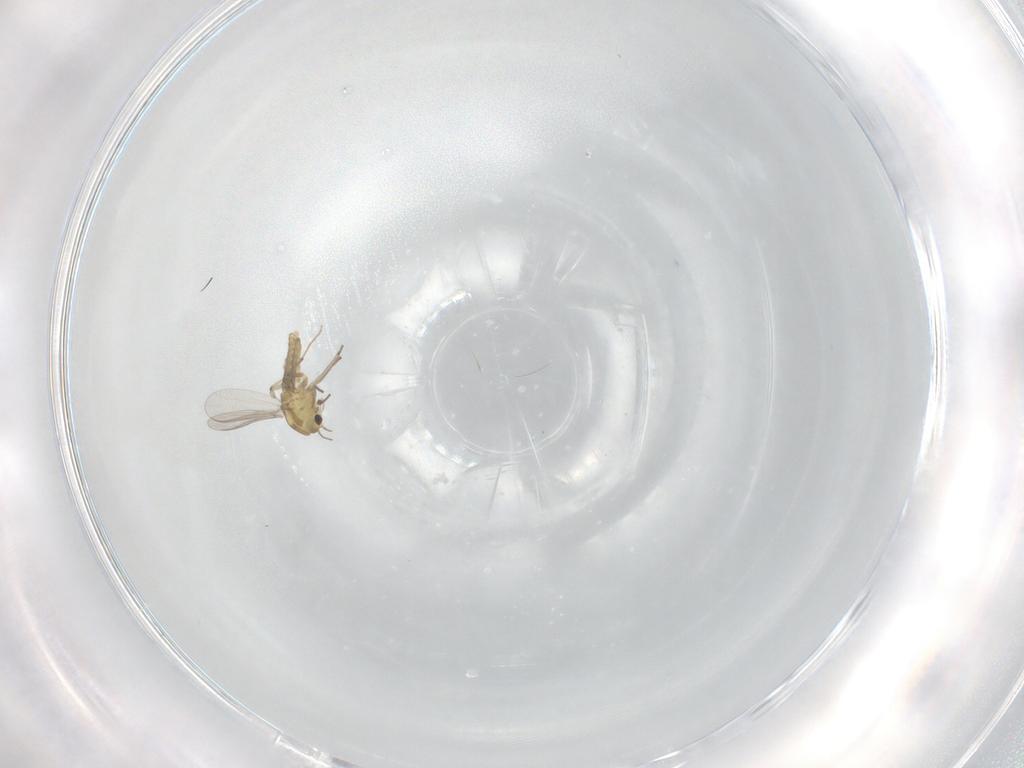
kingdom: Animalia
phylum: Arthropoda
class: Insecta
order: Diptera
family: Chironomidae
